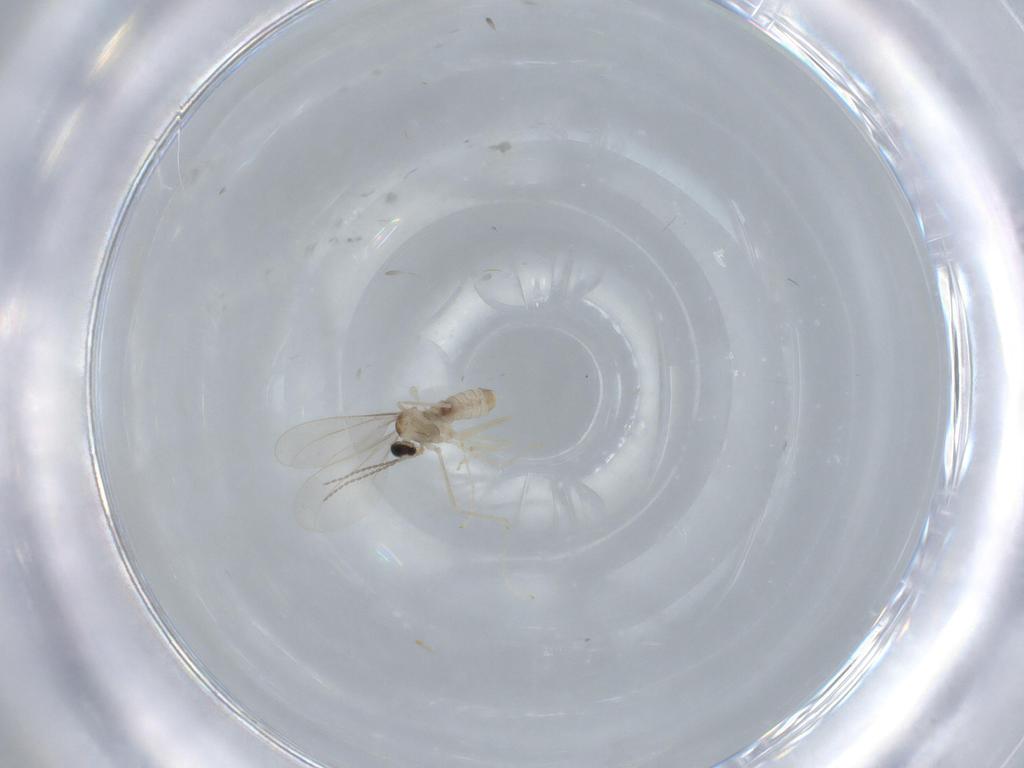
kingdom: Animalia
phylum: Arthropoda
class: Insecta
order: Diptera
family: Cecidomyiidae
